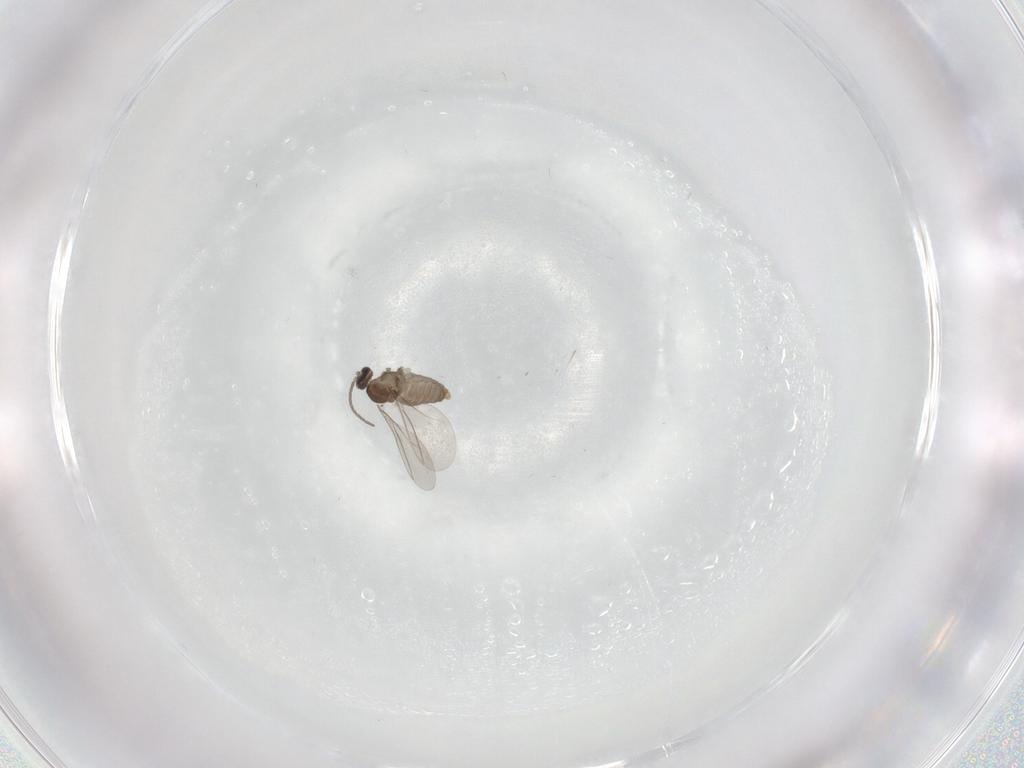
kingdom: Animalia
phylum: Arthropoda
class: Insecta
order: Diptera
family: Cecidomyiidae
